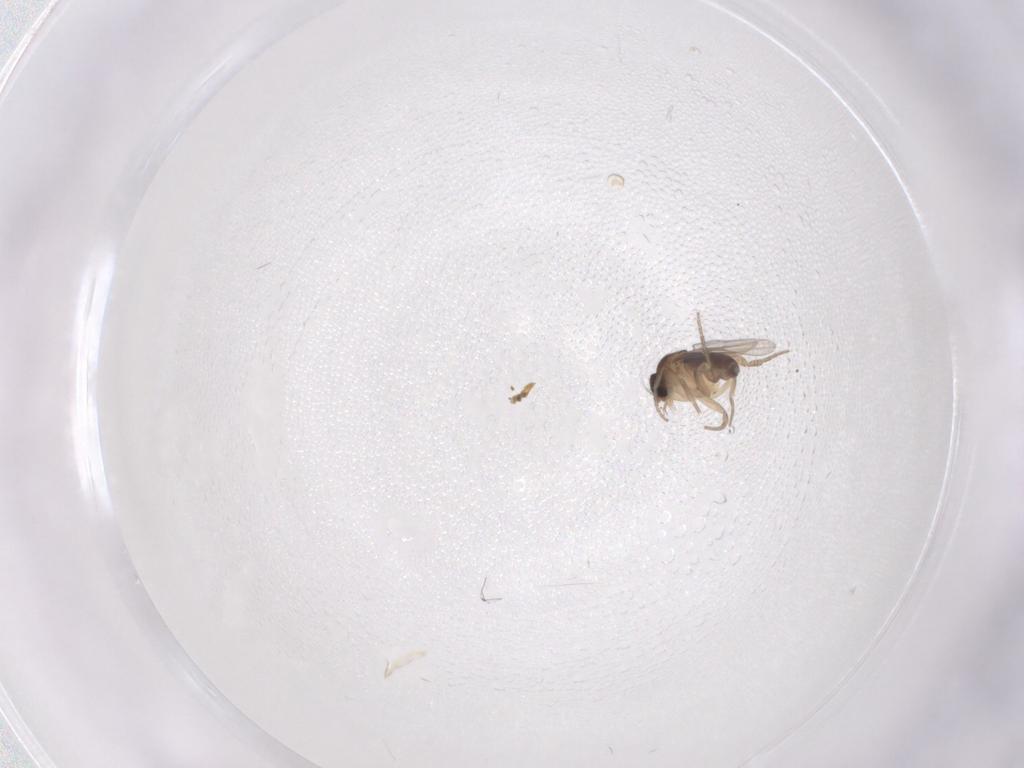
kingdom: Animalia
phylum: Arthropoda
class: Insecta
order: Diptera
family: Phoridae
